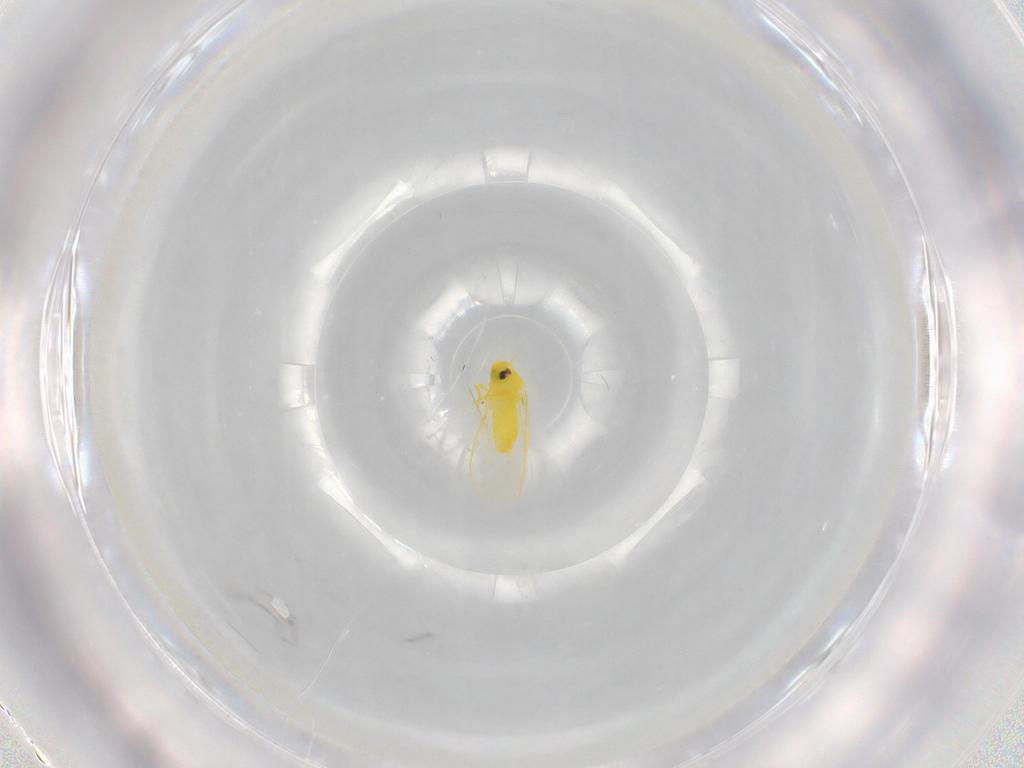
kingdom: Animalia
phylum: Arthropoda
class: Insecta
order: Hemiptera
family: Aleyrodidae
